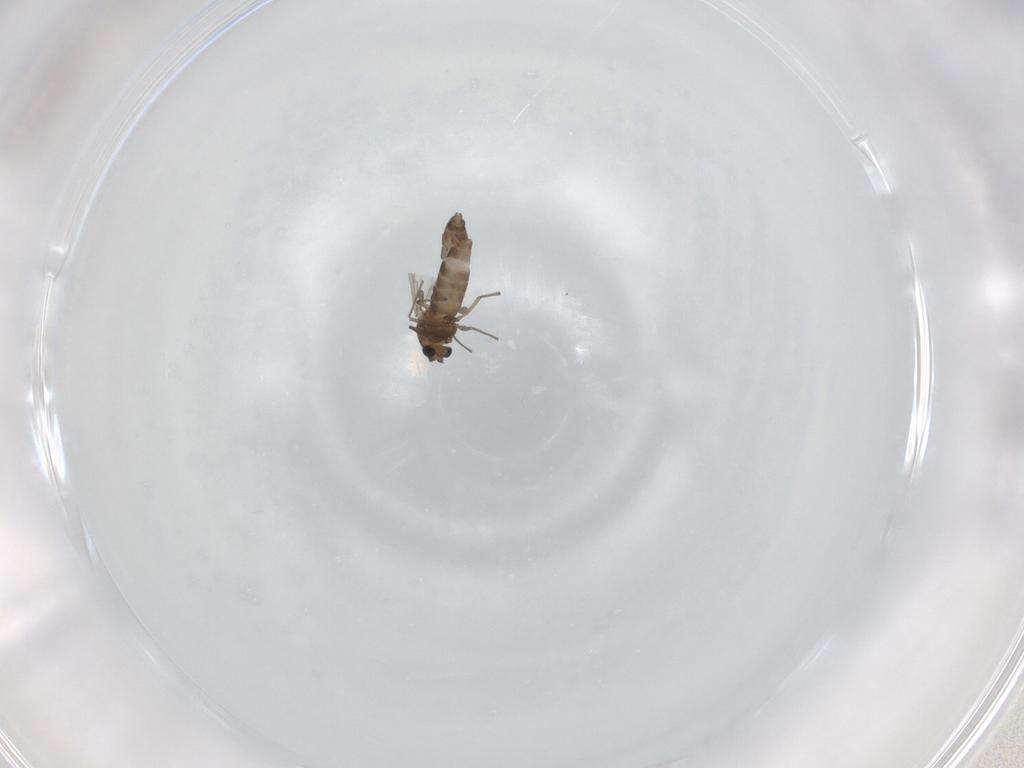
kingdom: Animalia
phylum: Arthropoda
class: Insecta
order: Diptera
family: Chironomidae
